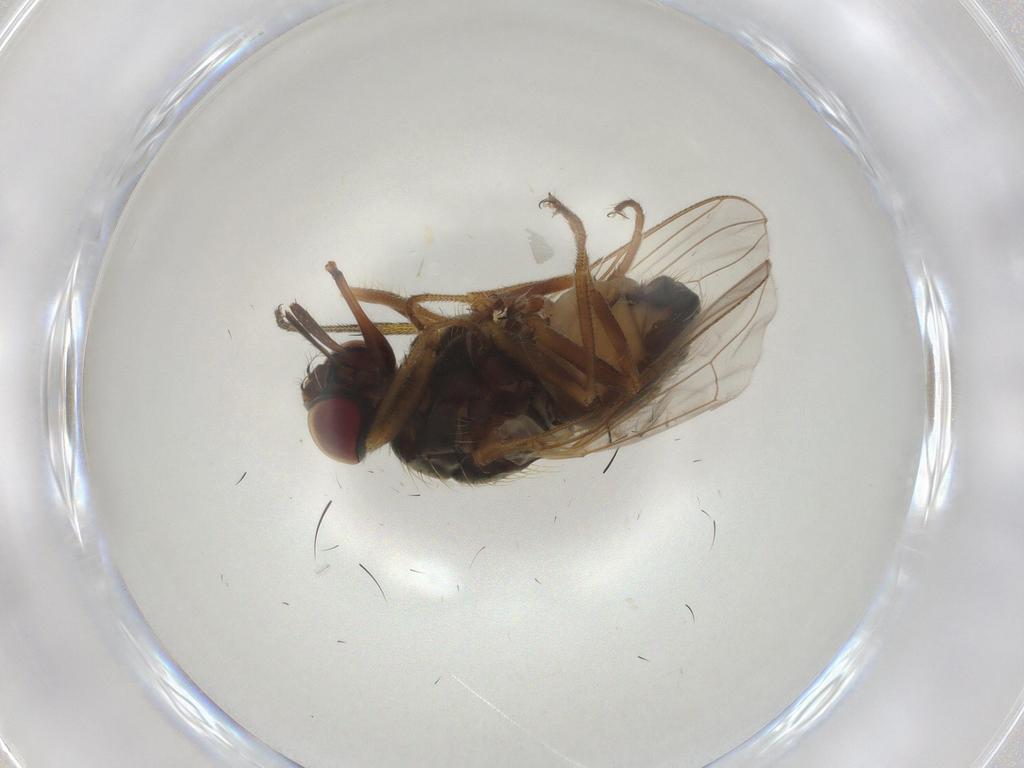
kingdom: Animalia
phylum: Arthropoda
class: Insecta
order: Diptera
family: Muscidae
